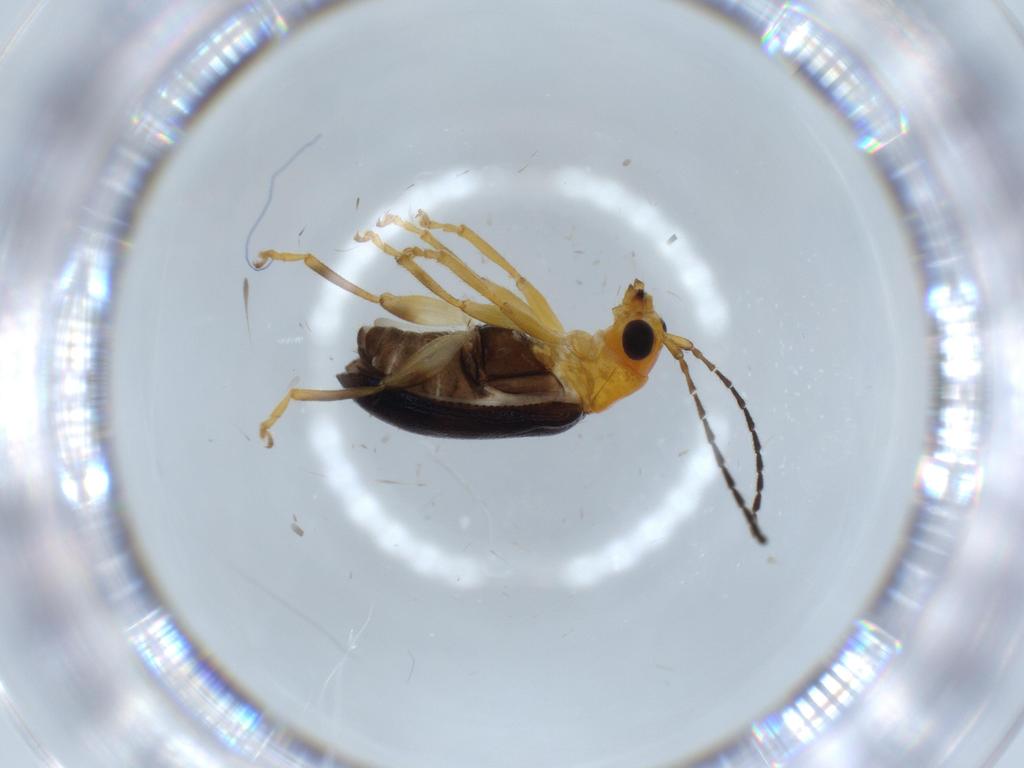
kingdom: Animalia
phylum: Arthropoda
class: Insecta
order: Coleoptera
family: Chrysomelidae
